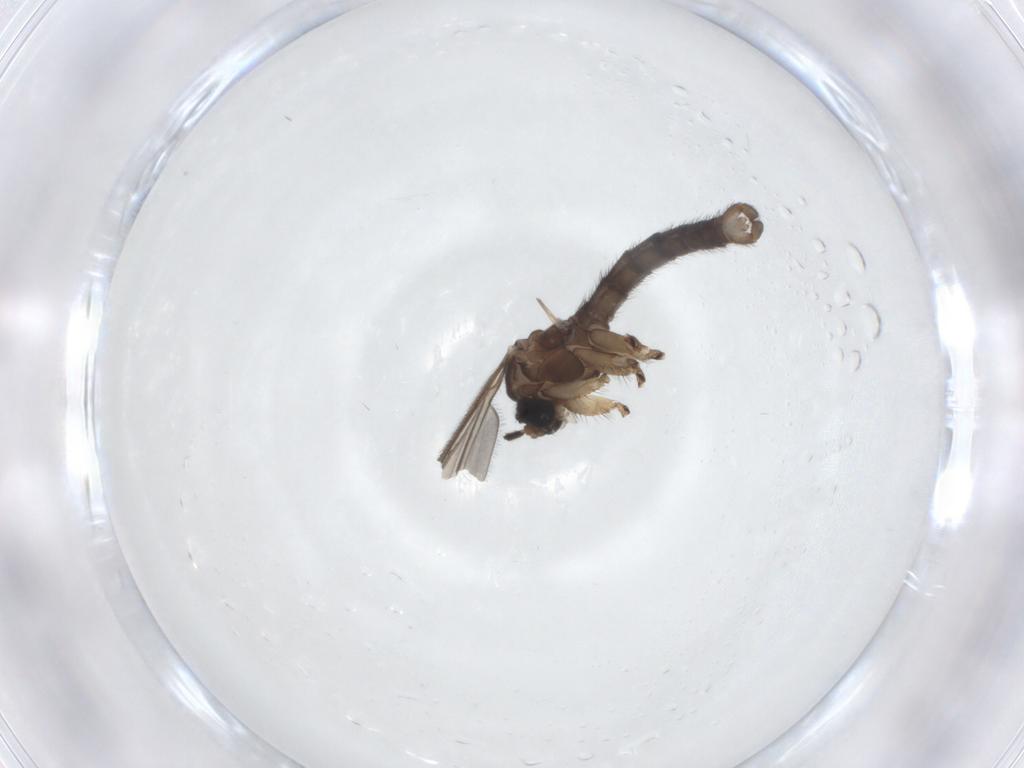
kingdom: Animalia
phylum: Arthropoda
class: Insecta
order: Diptera
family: Sciaridae
